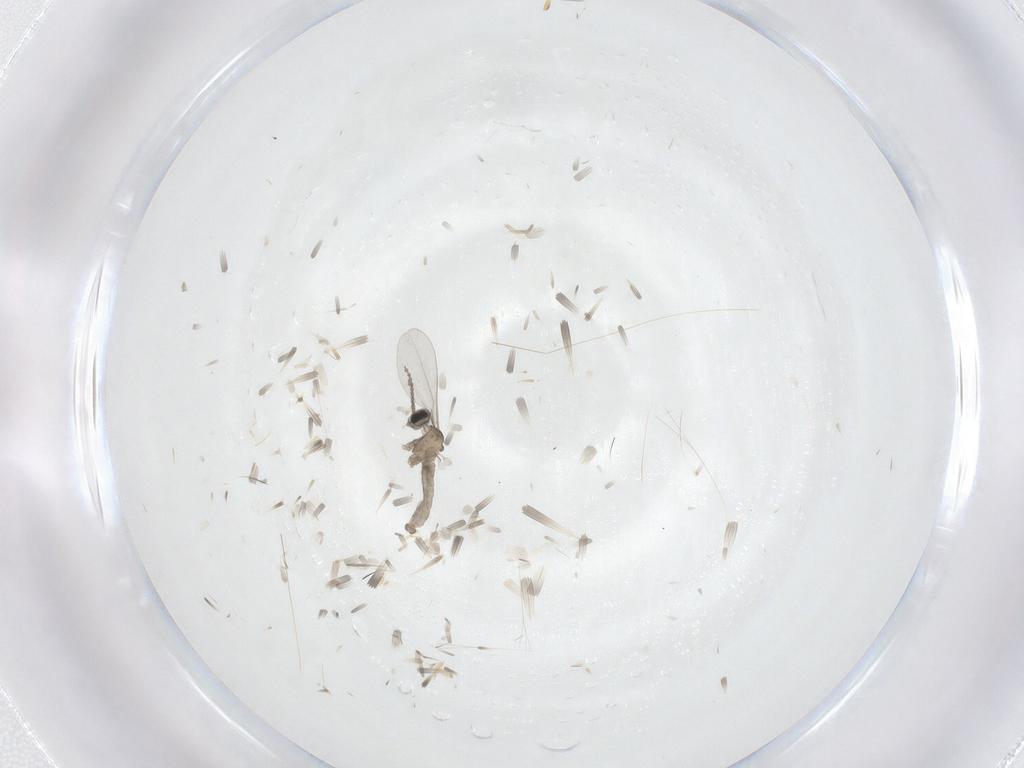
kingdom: Animalia
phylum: Arthropoda
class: Insecta
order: Diptera
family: Cecidomyiidae
